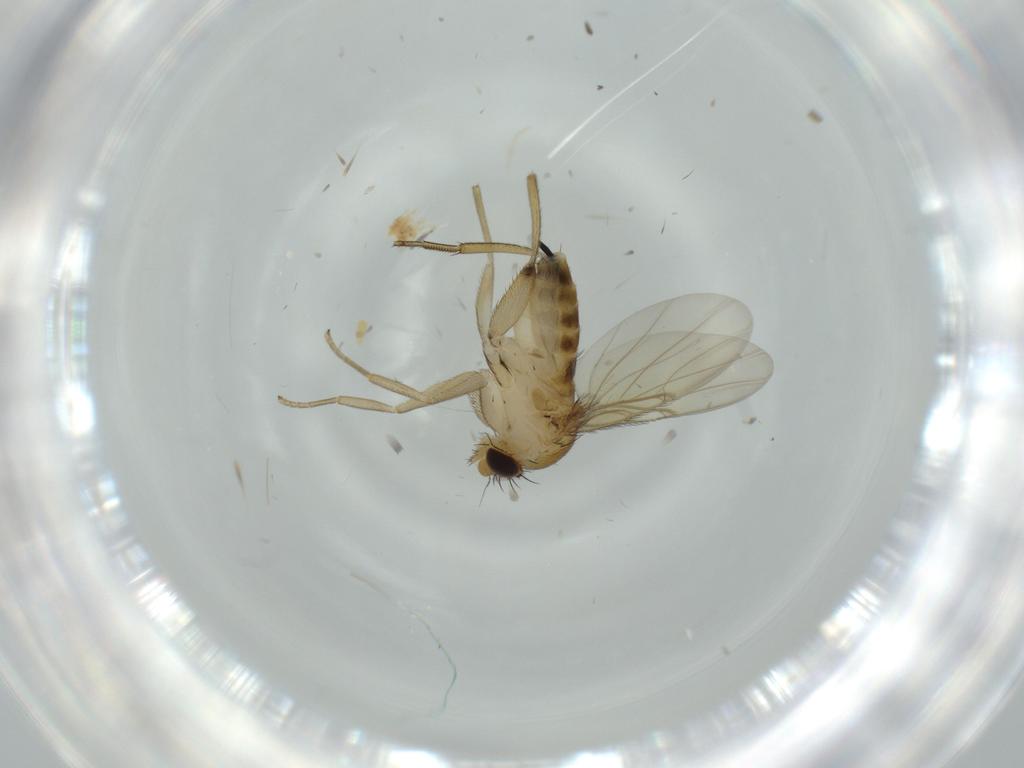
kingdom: Animalia
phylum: Arthropoda
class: Insecta
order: Diptera
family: Phoridae
